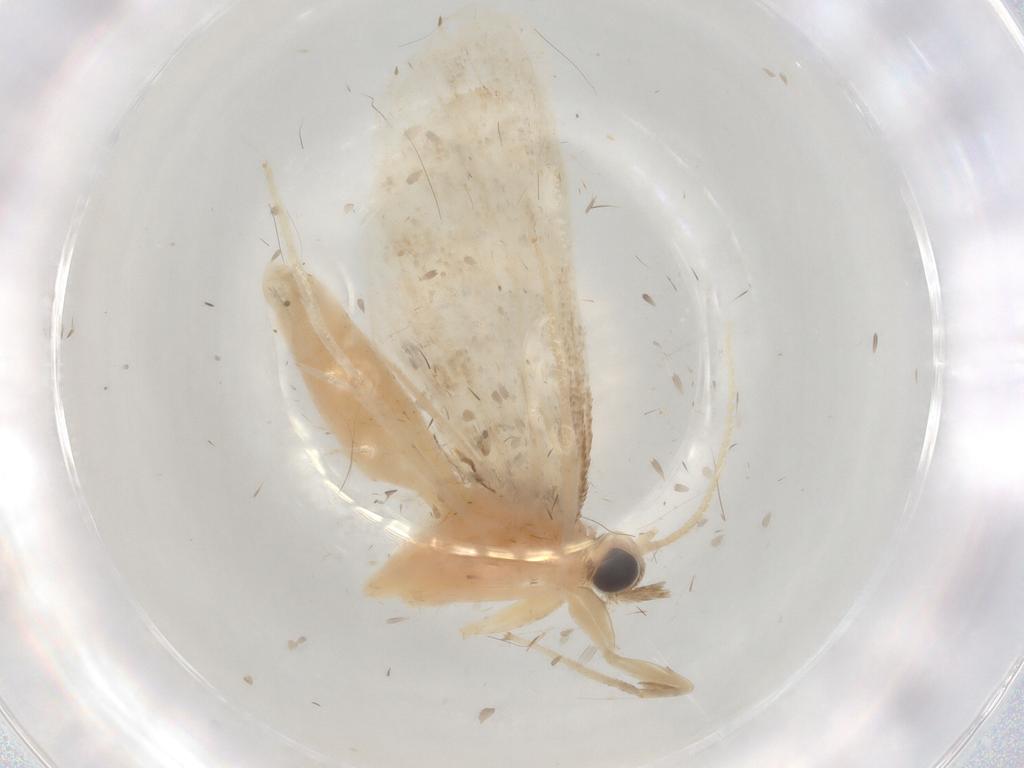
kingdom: Animalia
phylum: Arthropoda
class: Insecta
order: Lepidoptera
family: Crambidae
